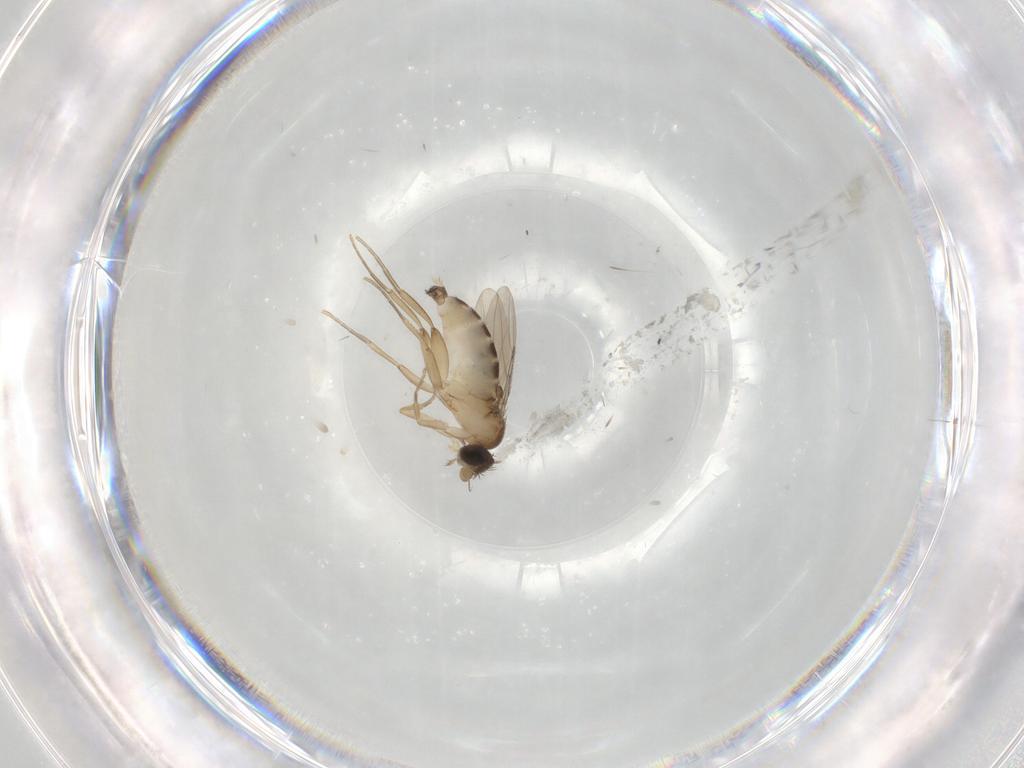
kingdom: Animalia
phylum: Arthropoda
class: Insecta
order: Diptera
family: Phoridae
